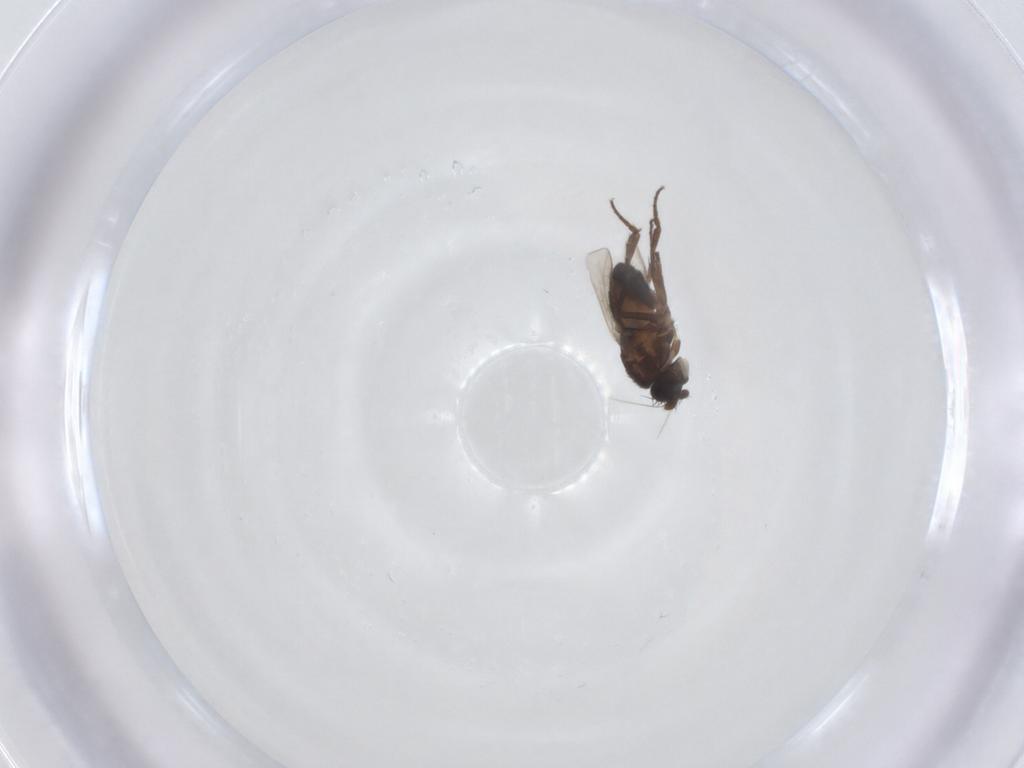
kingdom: Animalia
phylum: Arthropoda
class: Insecta
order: Diptera
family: Sphaeroceridae
